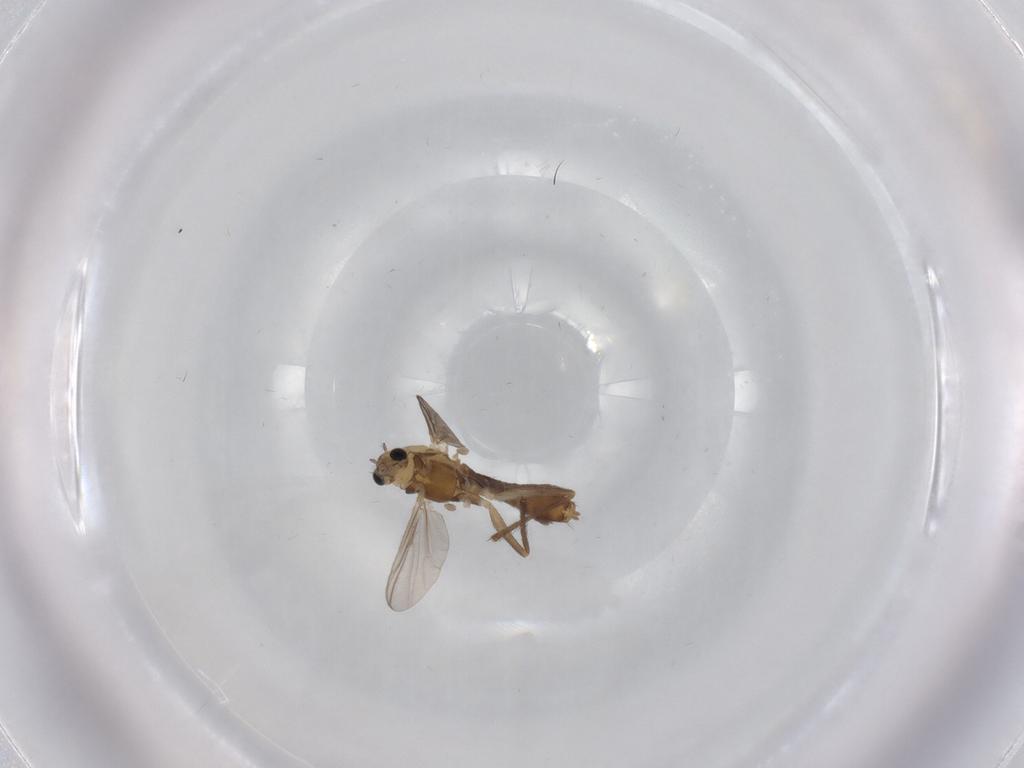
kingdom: Animalia
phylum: Arthropoda
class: Insecta
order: Diptera
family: Chironomidae
